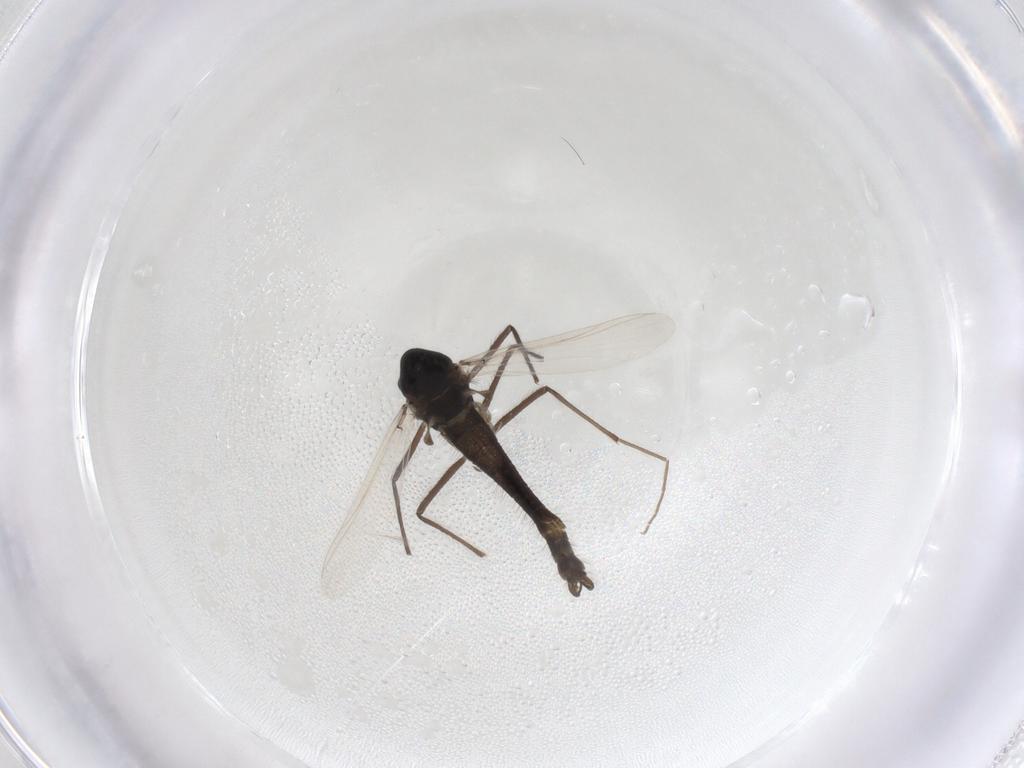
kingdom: Animalia
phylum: Arthropoda
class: Insecta
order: Diptera
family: Chironomidae
